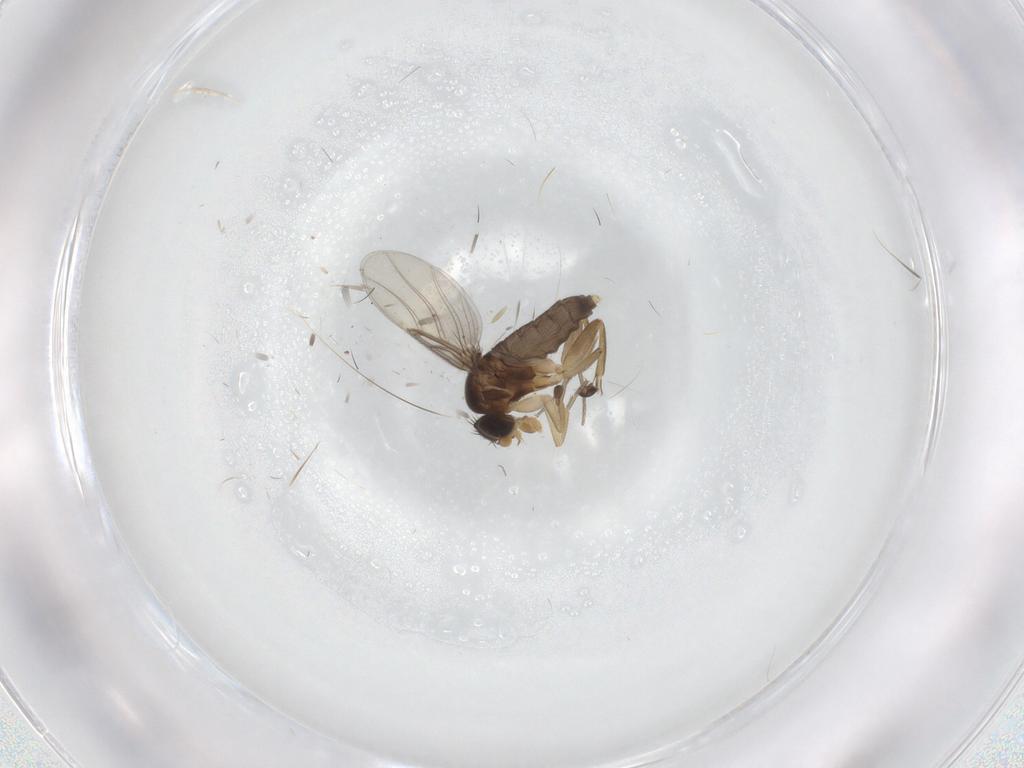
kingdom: Animalia
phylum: Arthropoda
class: Insecta
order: Diptera
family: Phoridae
